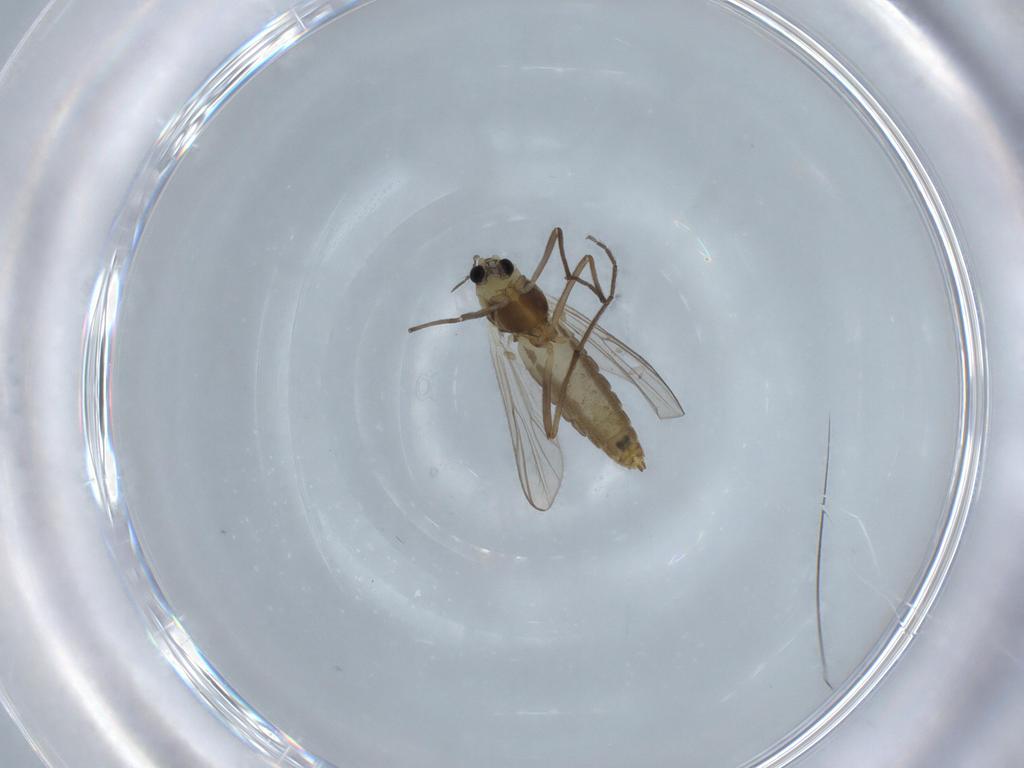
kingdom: Animalia
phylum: Arthropoda
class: Insecta
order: Diptera
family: Chironomidae
